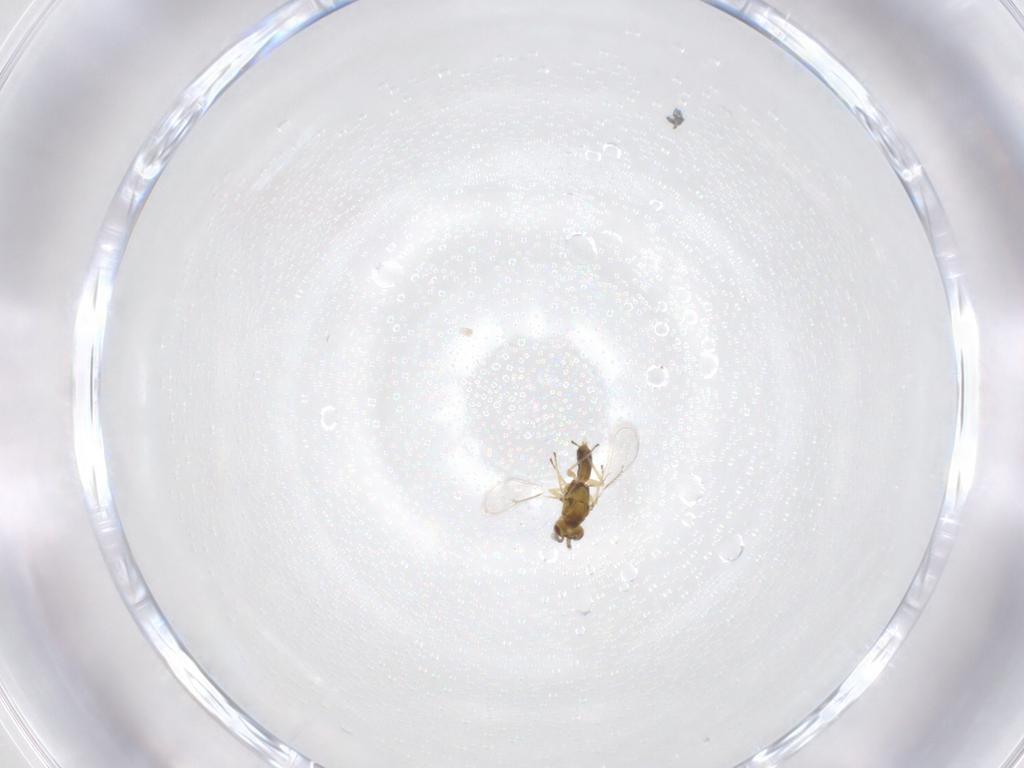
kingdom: Animalia
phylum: Arthropoda
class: Insecta
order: Hymenoptera
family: Eulophidae
